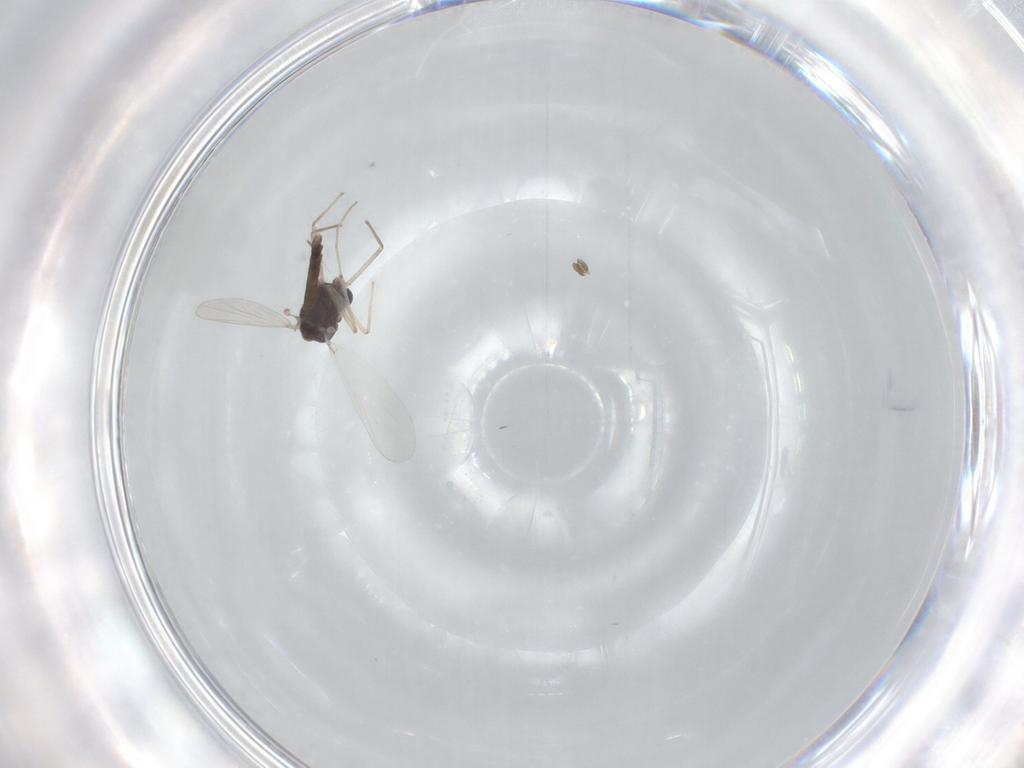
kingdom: Animalia
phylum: Arthropoda
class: Insecta
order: Diptera
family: Chironomidae
